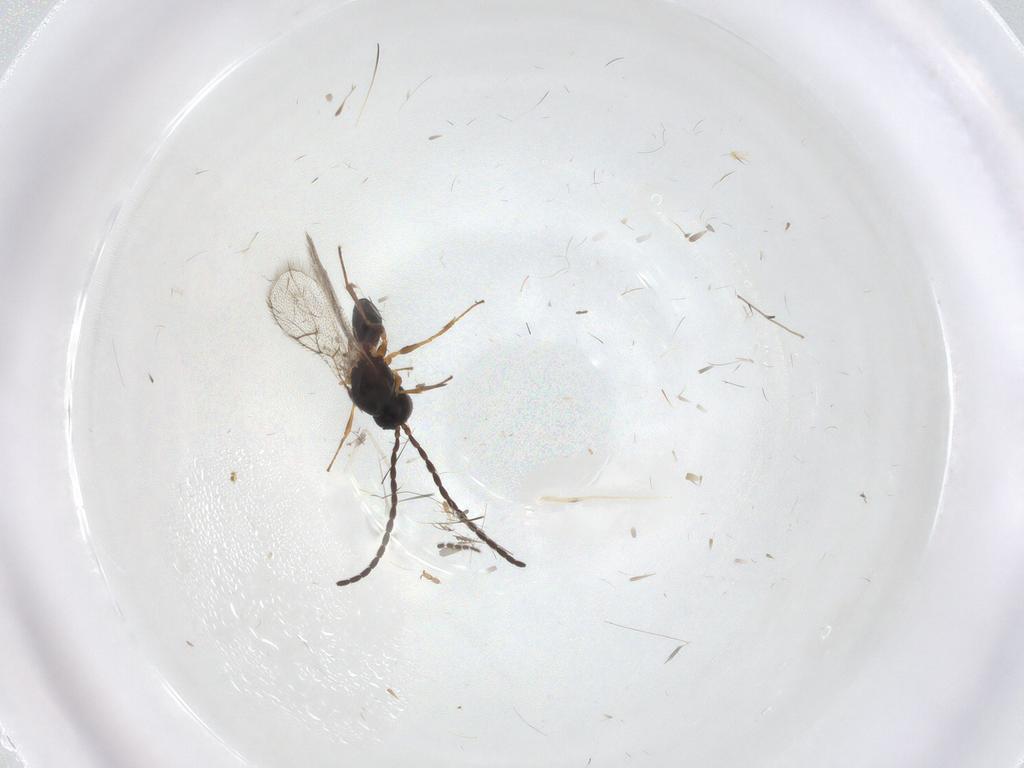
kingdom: Animalia
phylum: Arthropoda
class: Insecta
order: Hymenoptera
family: Figitidae
